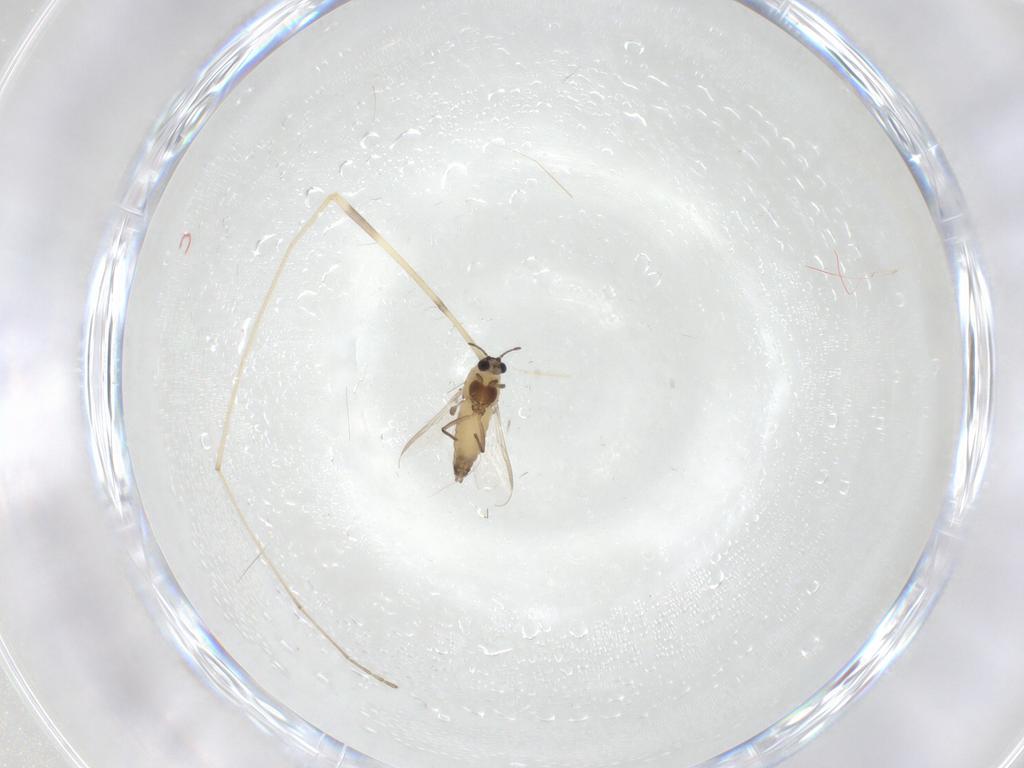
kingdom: Animalia
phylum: Arthropoda
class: Insecta
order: Diptera
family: Chironomidae
